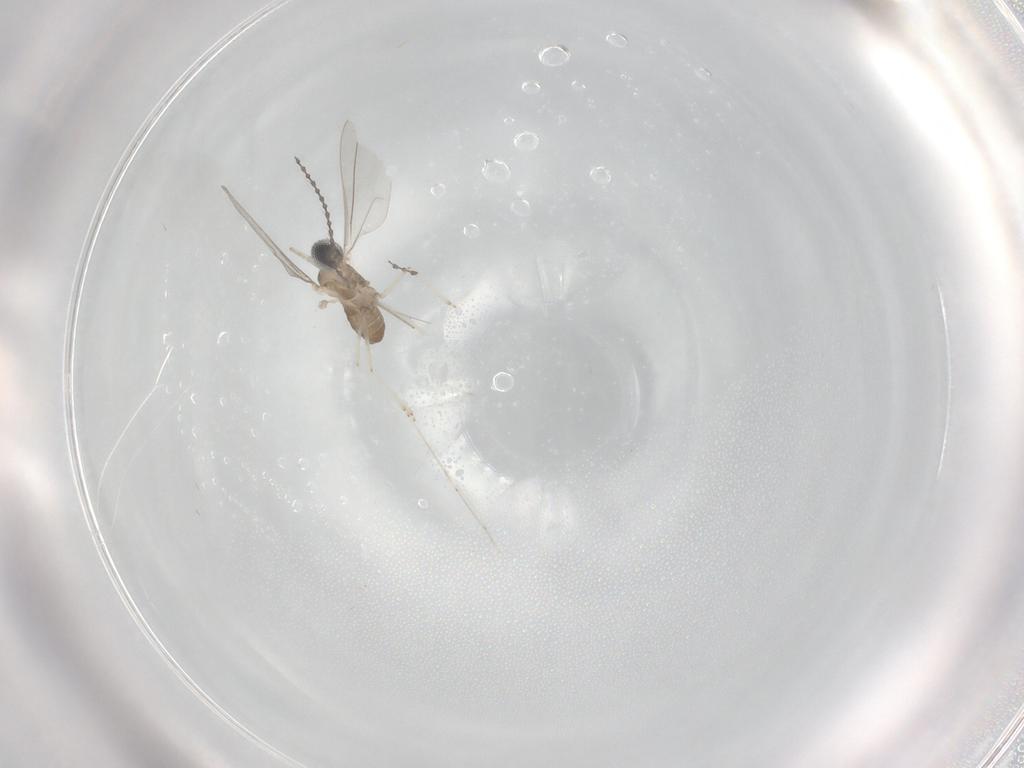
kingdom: Animalia
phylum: Arthropoda
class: Insecta
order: Diptera
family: Cecidomyiidae
